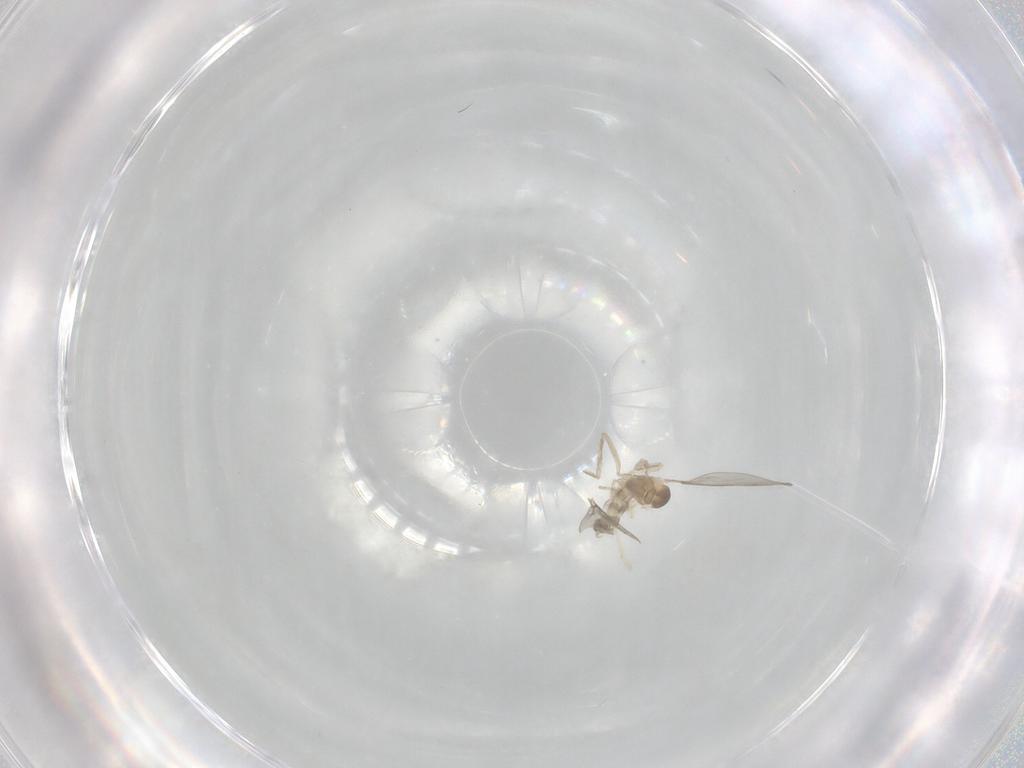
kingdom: Animalia
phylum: Arthropoda
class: Insecta
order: Diptera
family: Cecidomyiidae
